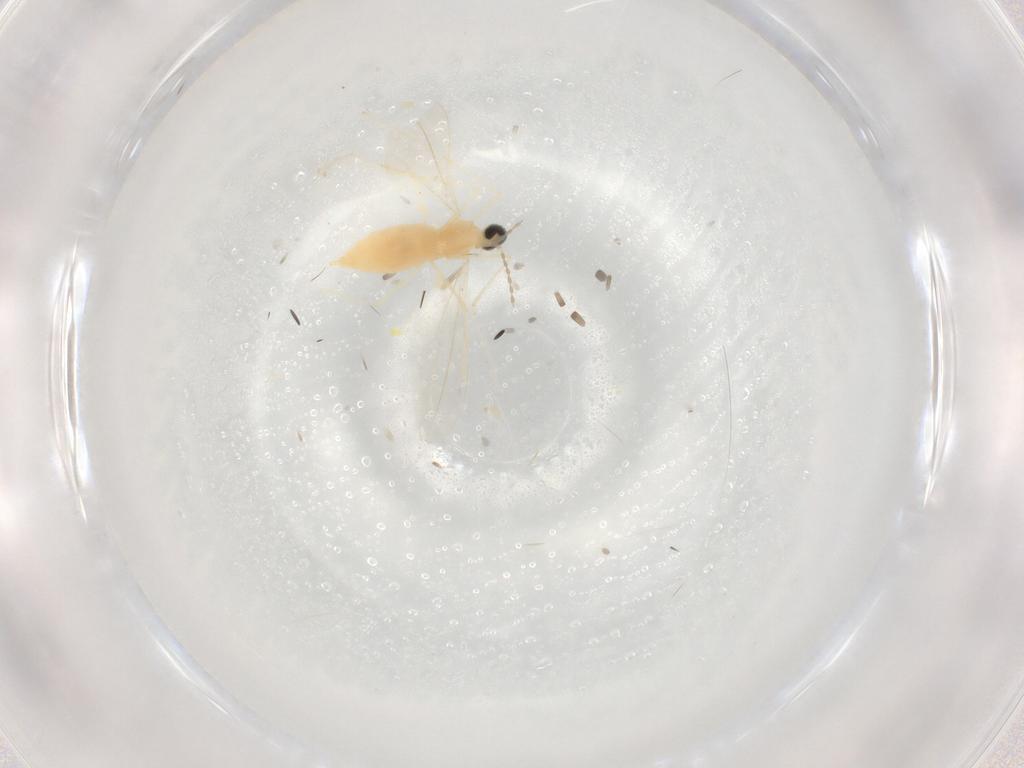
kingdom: Animalia
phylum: Arthropoda
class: Insecta
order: Diptera
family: Cecidomyiidae
